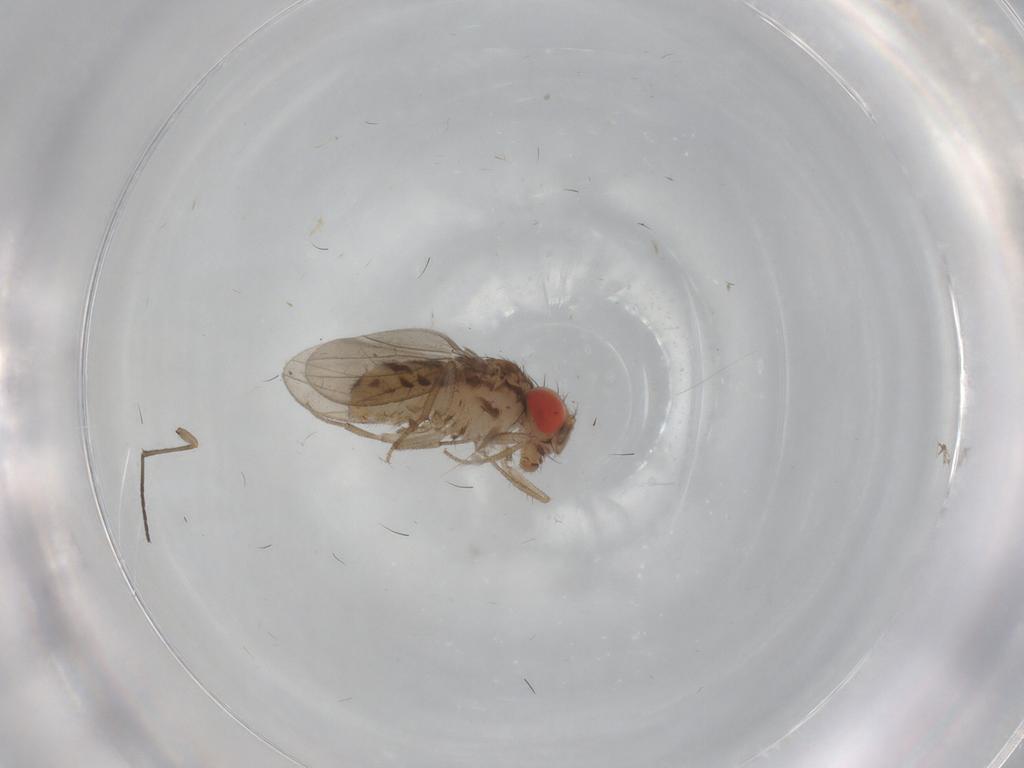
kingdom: Animalia
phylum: Arthropoda
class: Insecta
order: Diptera
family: Drosophilidae
